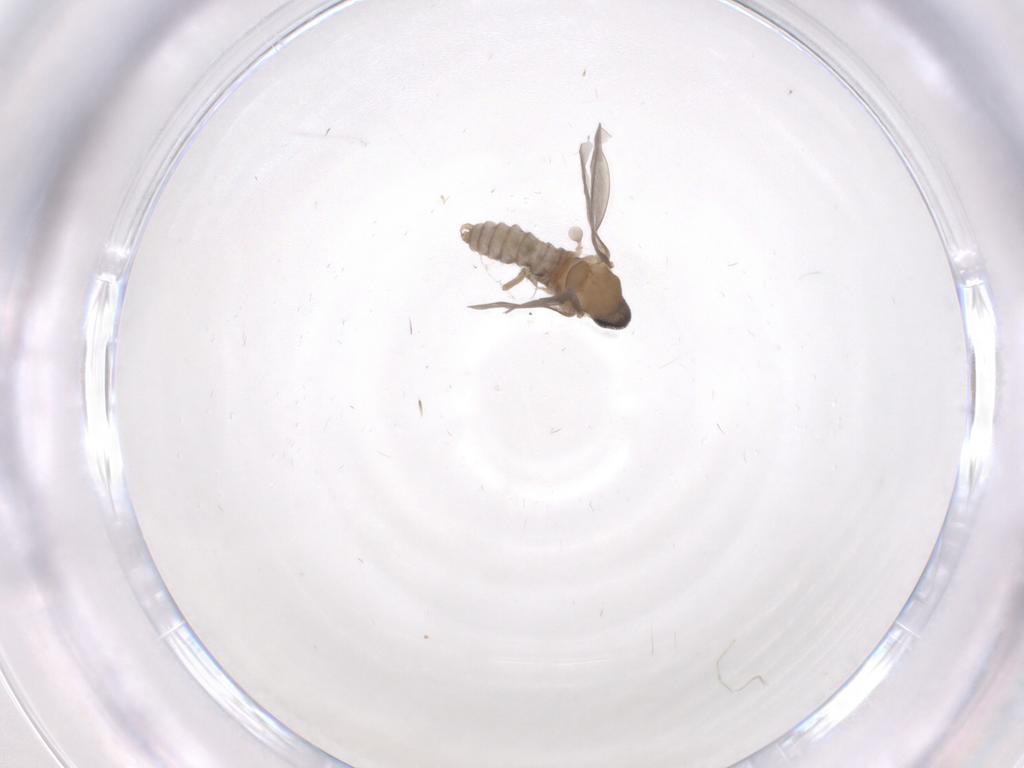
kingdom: Animalia
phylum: Arthropoda
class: Insecta
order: Diptera
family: Cecidomyiidae
